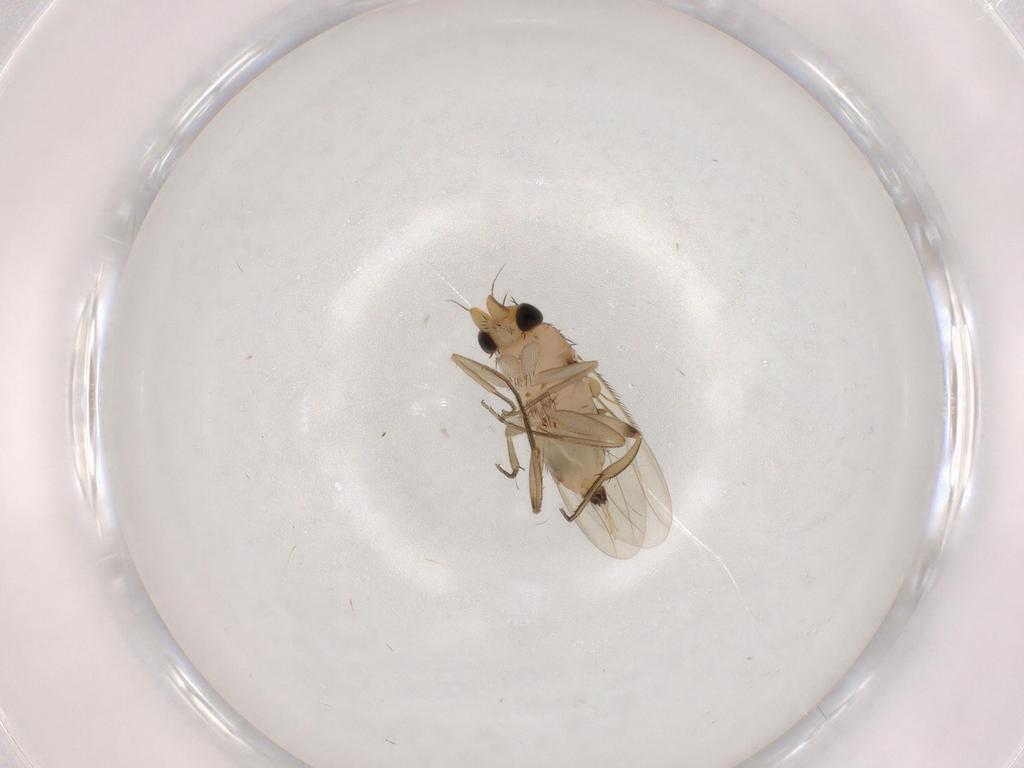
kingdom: Animalia
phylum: Arthropoda
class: Insecta
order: Diptera
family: Phoridae
